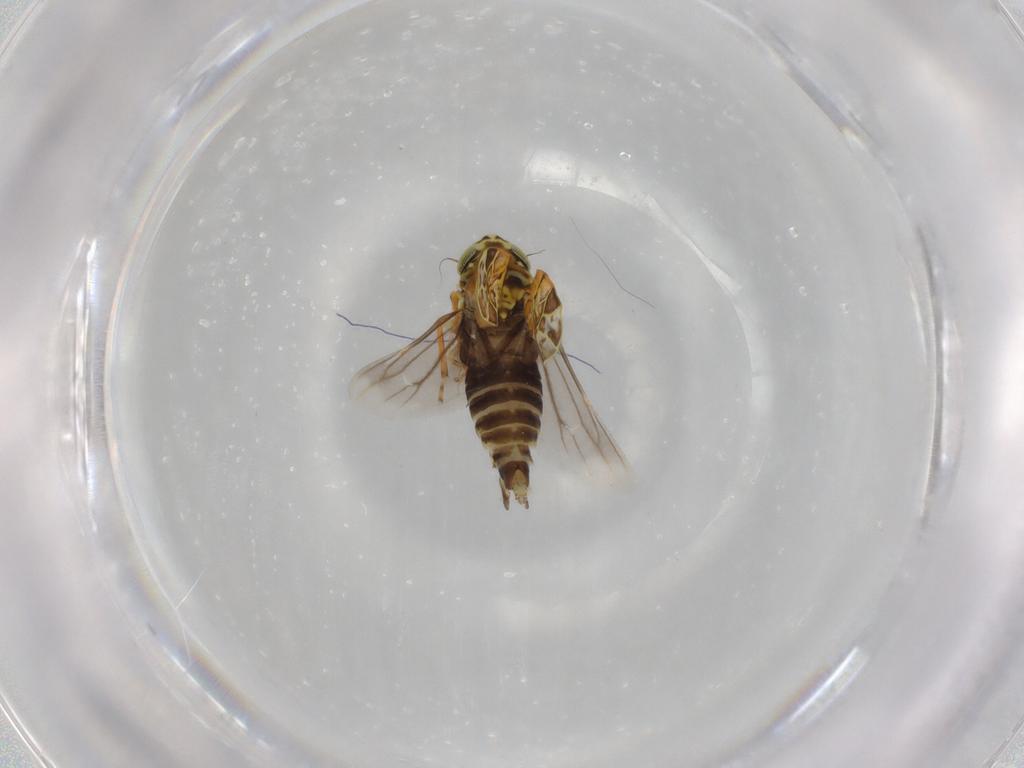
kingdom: Animalia
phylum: Arthropoda
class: Insecta
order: Hemiptera
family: Cicadellidae
